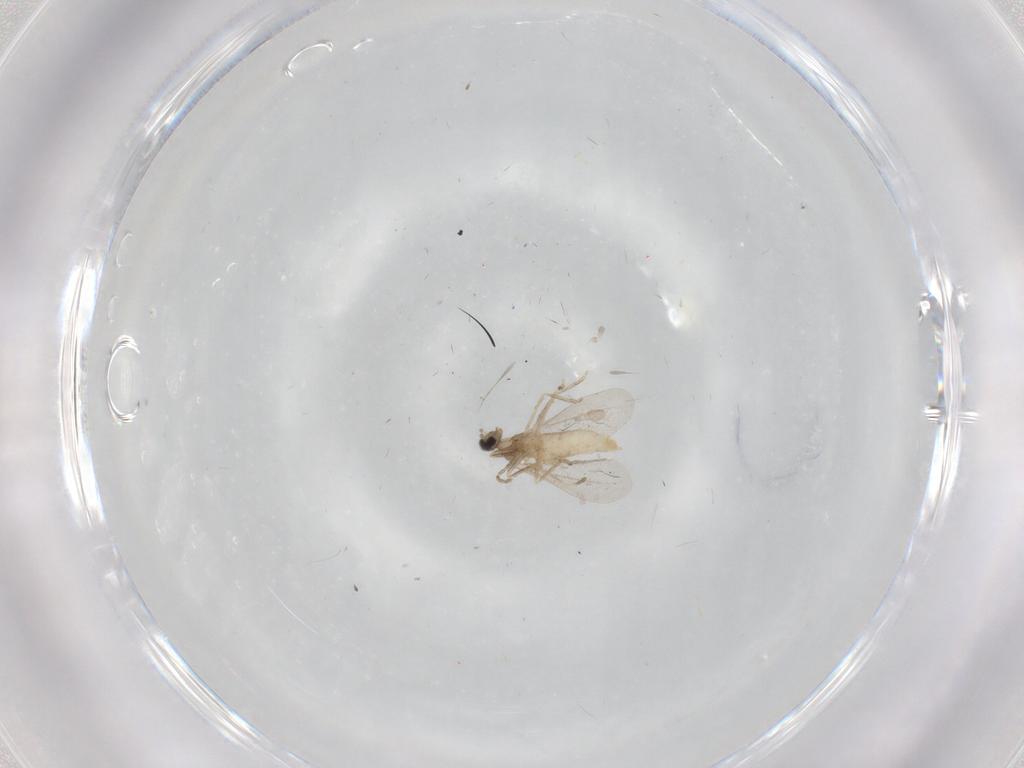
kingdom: Animalia
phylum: Arthropoda
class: Insecta
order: Diptera
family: Cecidomyiidae
